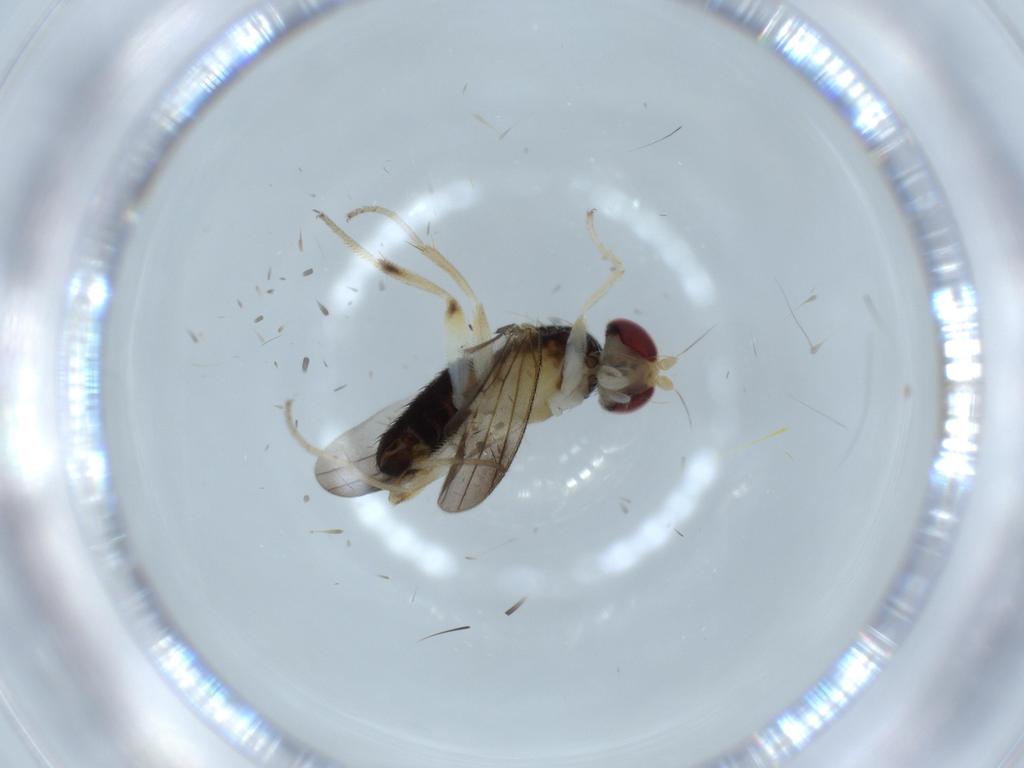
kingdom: Animalia
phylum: Arthropoda
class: Insecta
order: Diptera
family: Clusiidae
